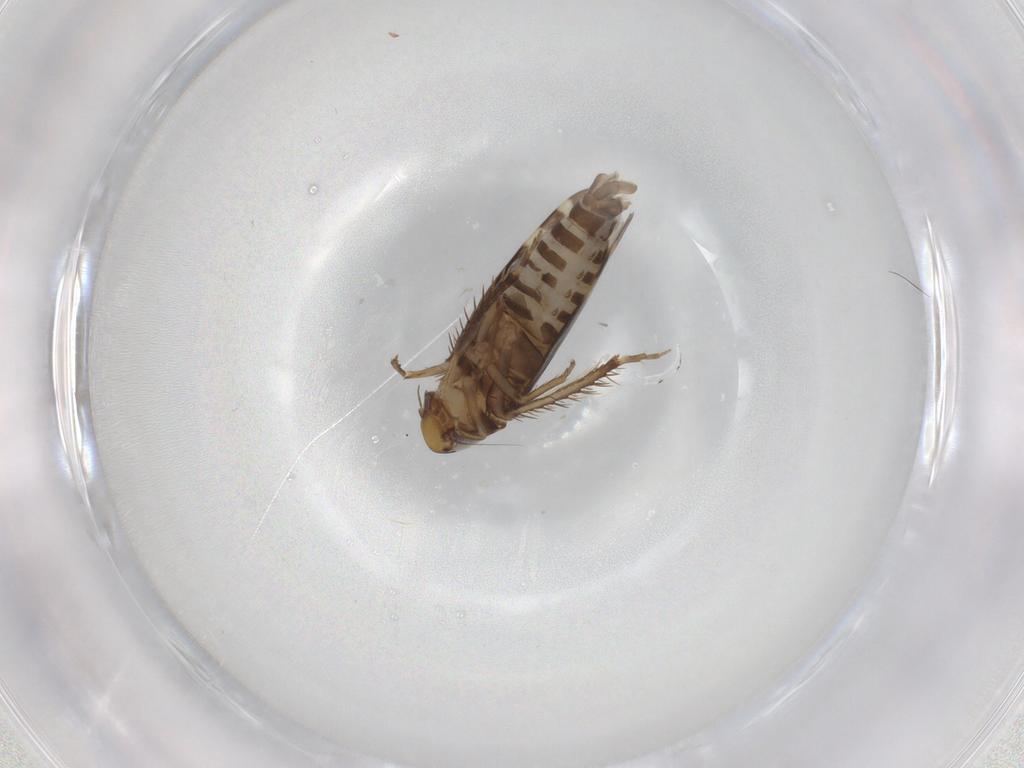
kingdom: Animalia
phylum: Arthropoda
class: Insecta
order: Hemiptera
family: Cicadellidae
